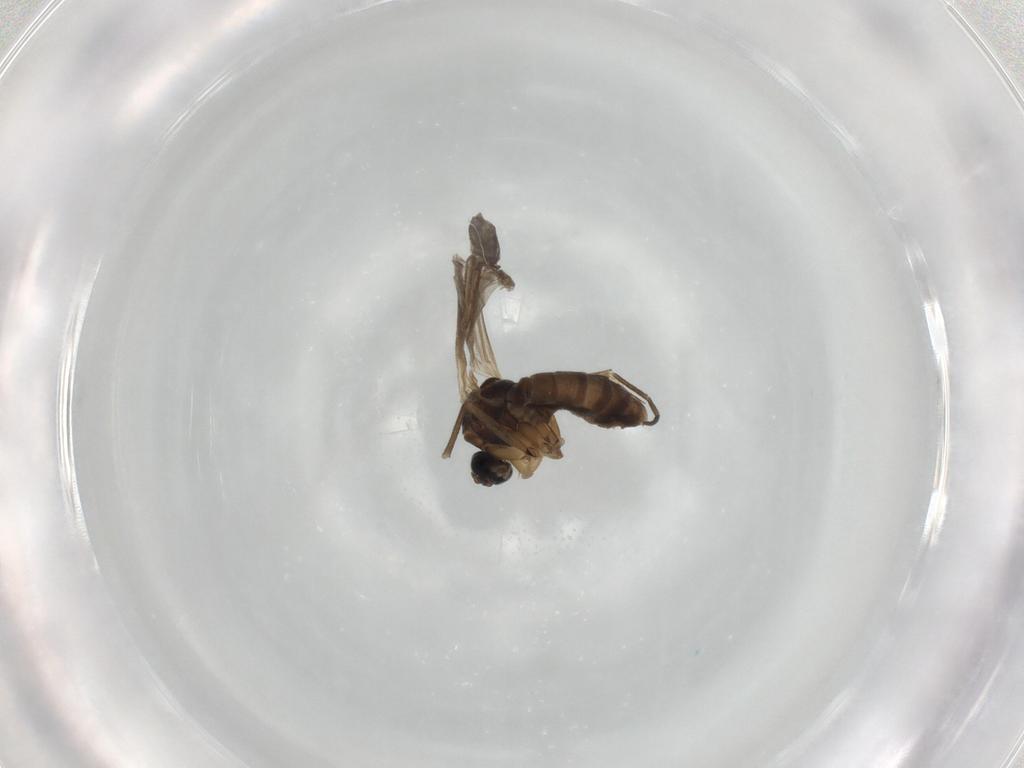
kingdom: Animalia
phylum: Arthropoda
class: Insecta
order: Diptera
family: Sciaridae
